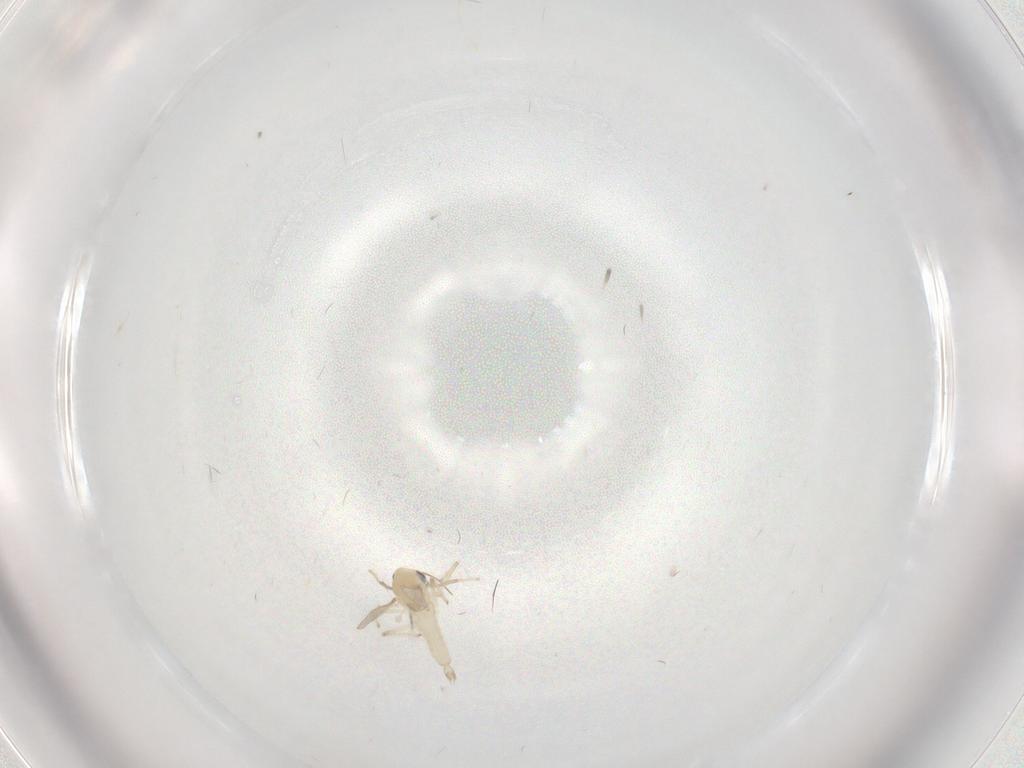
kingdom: Animalia
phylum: Arthropoda
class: Insecta
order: Diptera
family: Chironomidae
